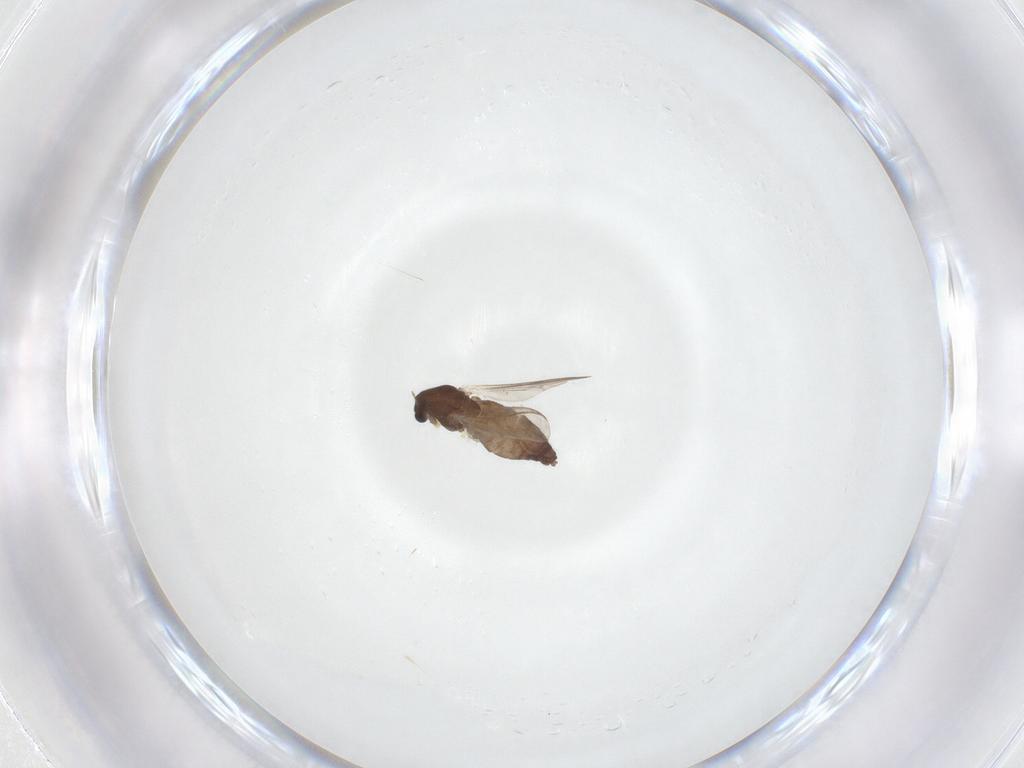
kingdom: Animalia
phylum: Arthropoda
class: Insecta
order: Diptera
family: Chironomidae
